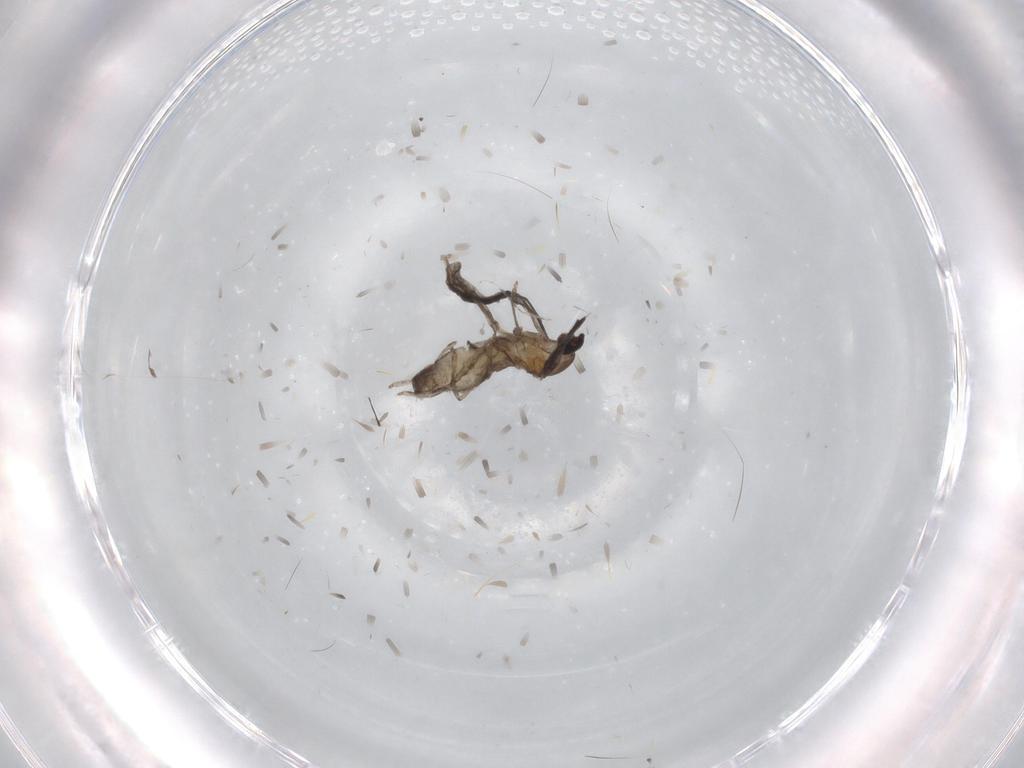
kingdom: Animalia
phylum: Arthropoda
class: Insecta
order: Diptera
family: Cecidomyiidae
